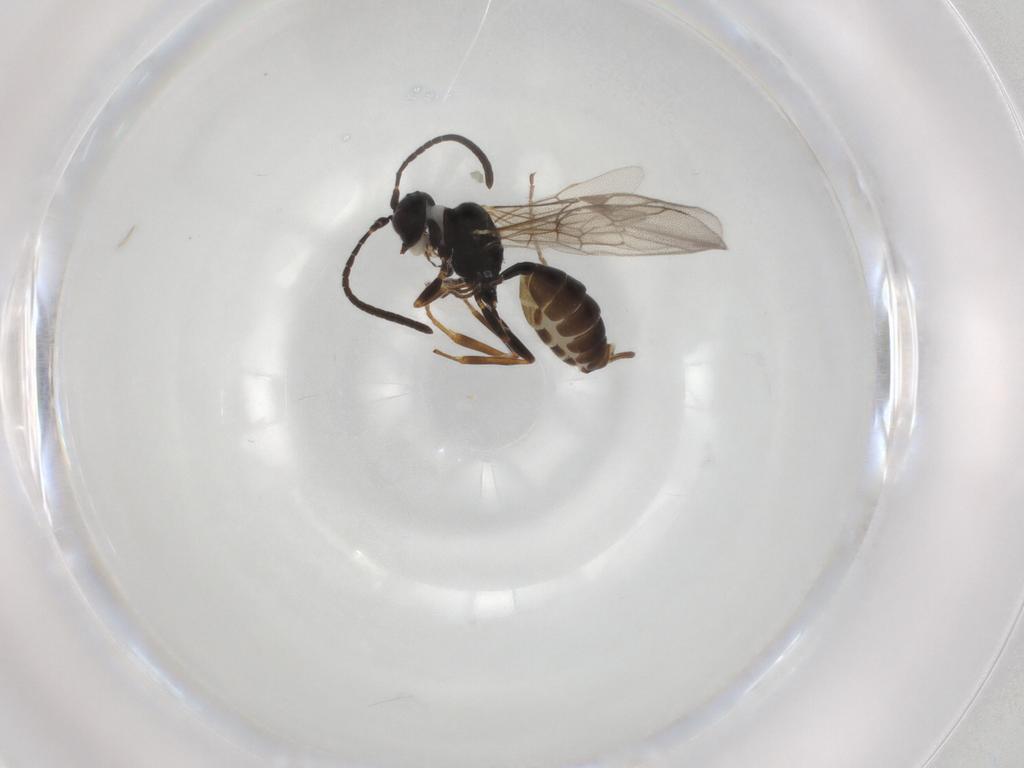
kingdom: Animalia
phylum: Arthropoda
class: Insecta
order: Hymenoptera
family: Ichneumonidae
